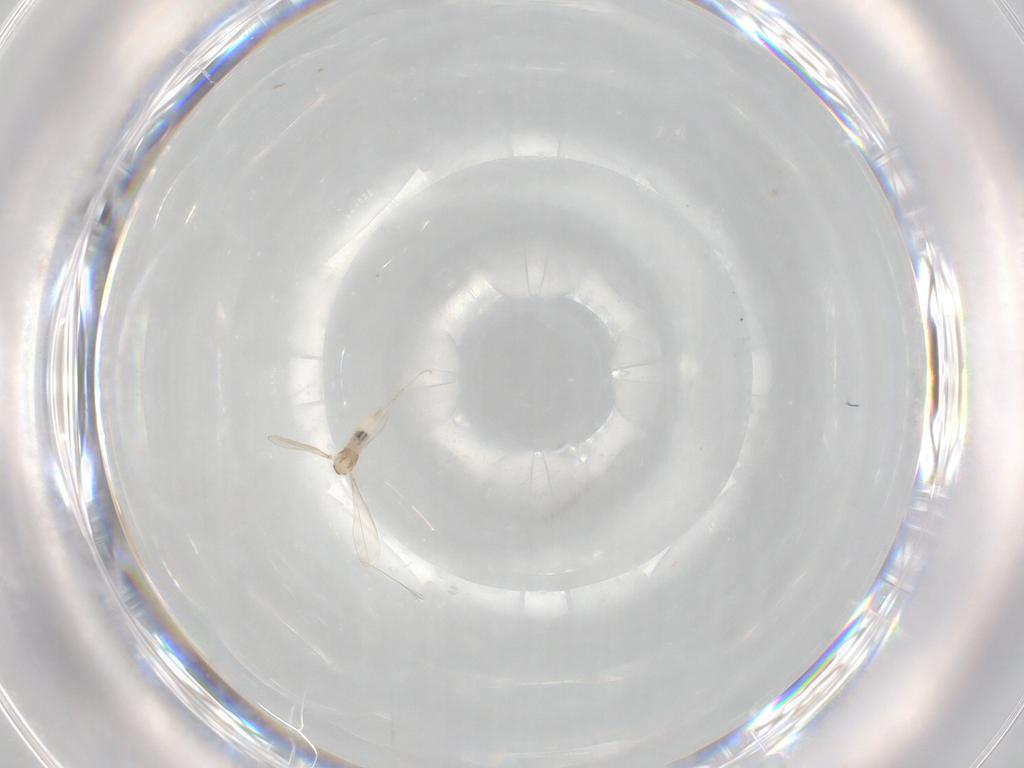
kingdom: Animalia
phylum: Arthropoda
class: Insecta
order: Diptera
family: Cecidomyiidae
